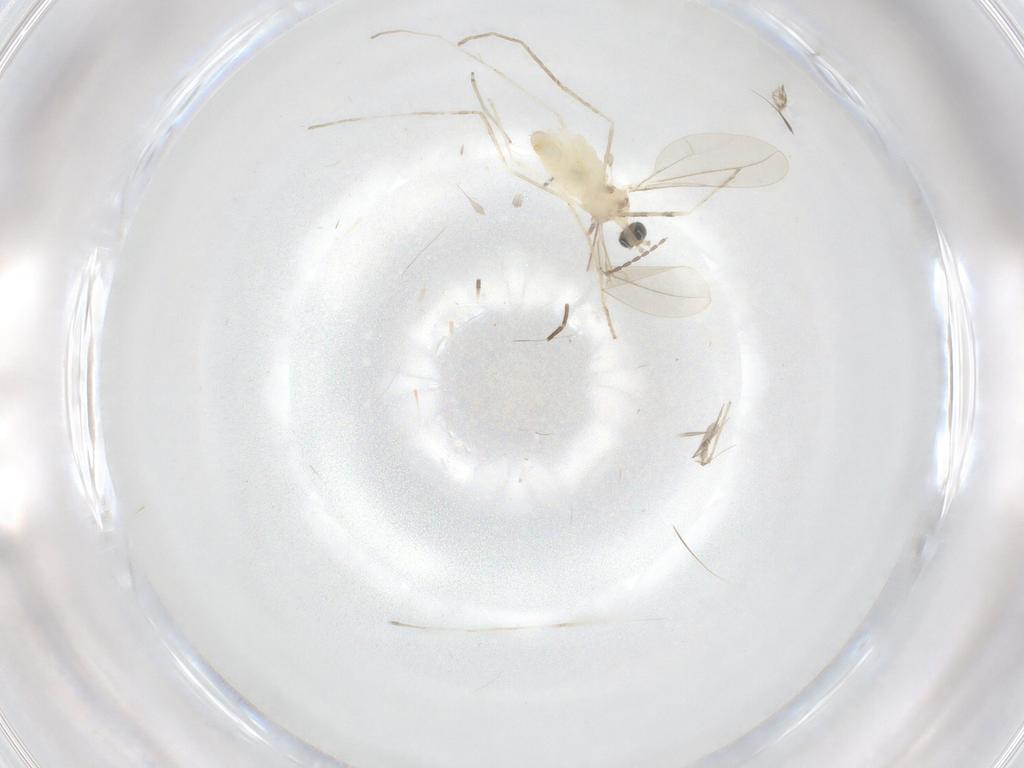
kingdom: Animalia
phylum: Arthropoda
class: Insecta
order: Diptera
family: Cecidomyiidae
